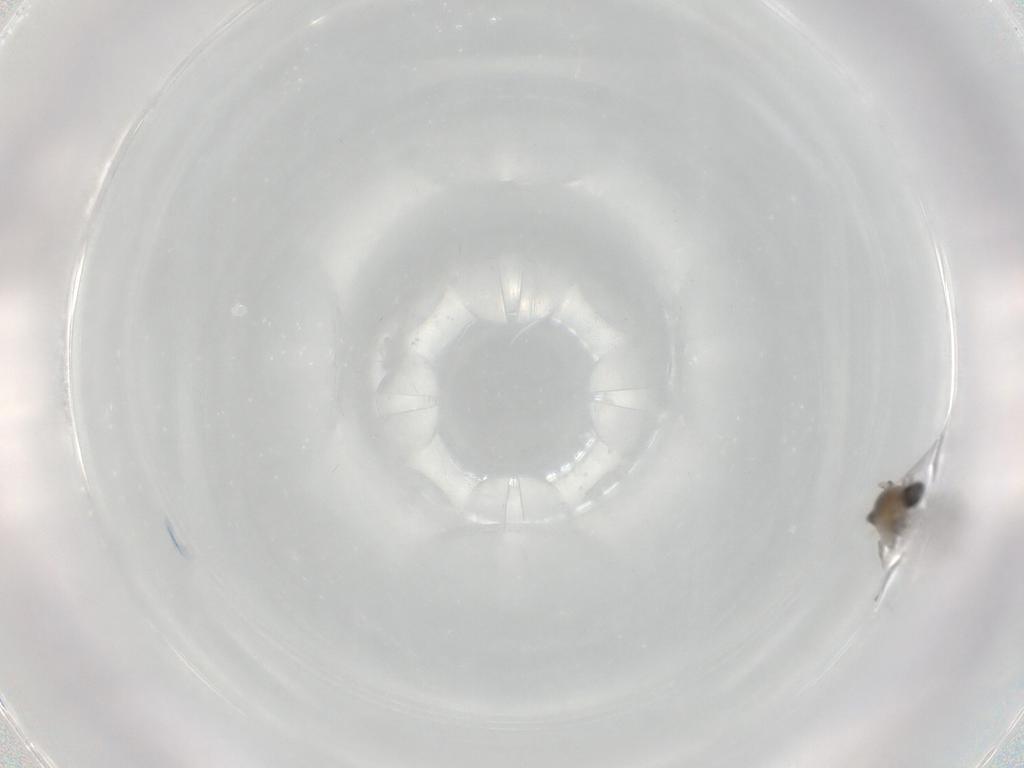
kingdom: Animalia
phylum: Arthropoda
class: Insecta
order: Diptera
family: Cecidomyiidae
